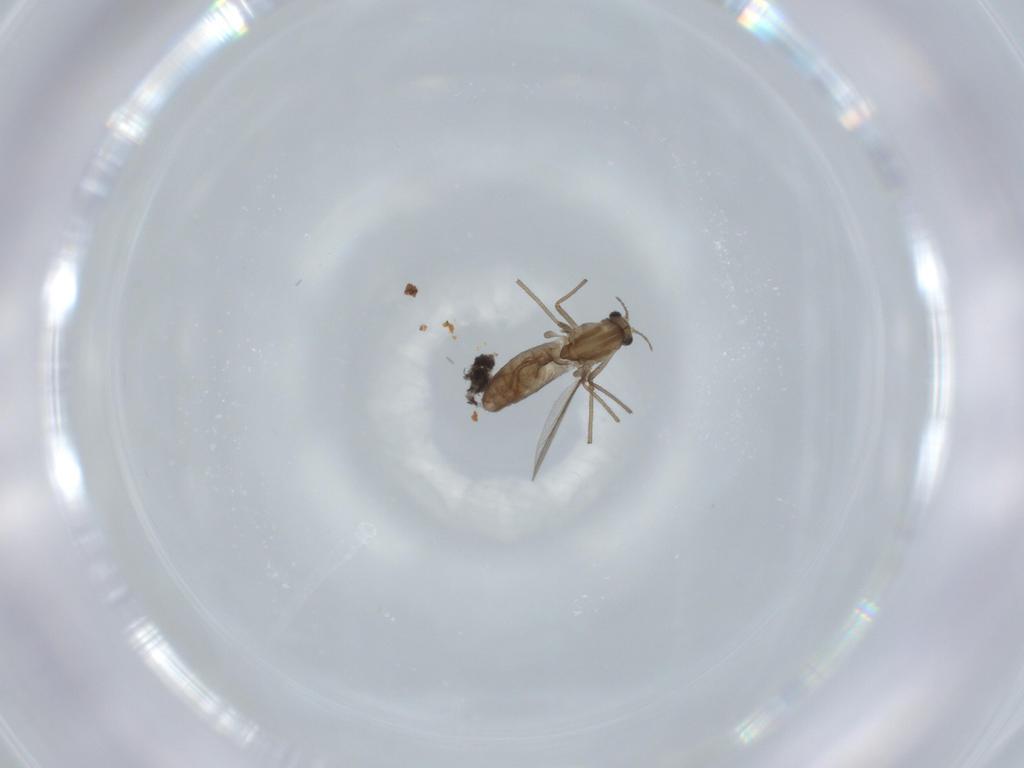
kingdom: Animalia
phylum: Arthropoda
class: Insecta
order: Diptera
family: Chironomidae
